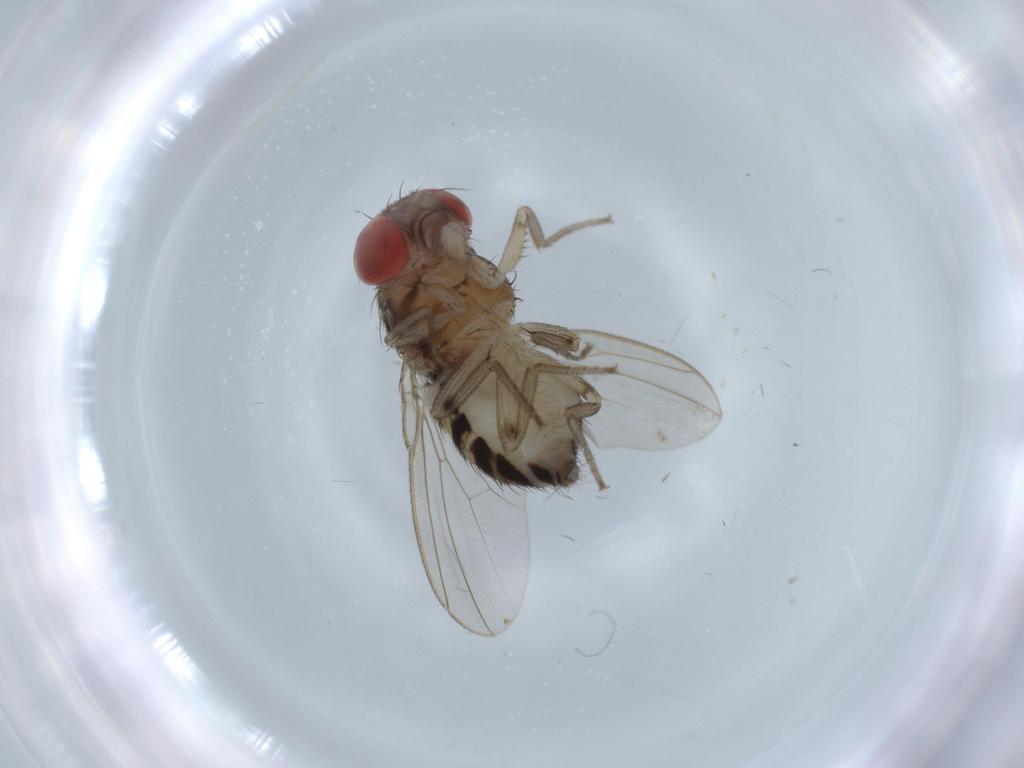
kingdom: Animalia
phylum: Arthropoda
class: Insecta
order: Diptera
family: Drosophilidae
